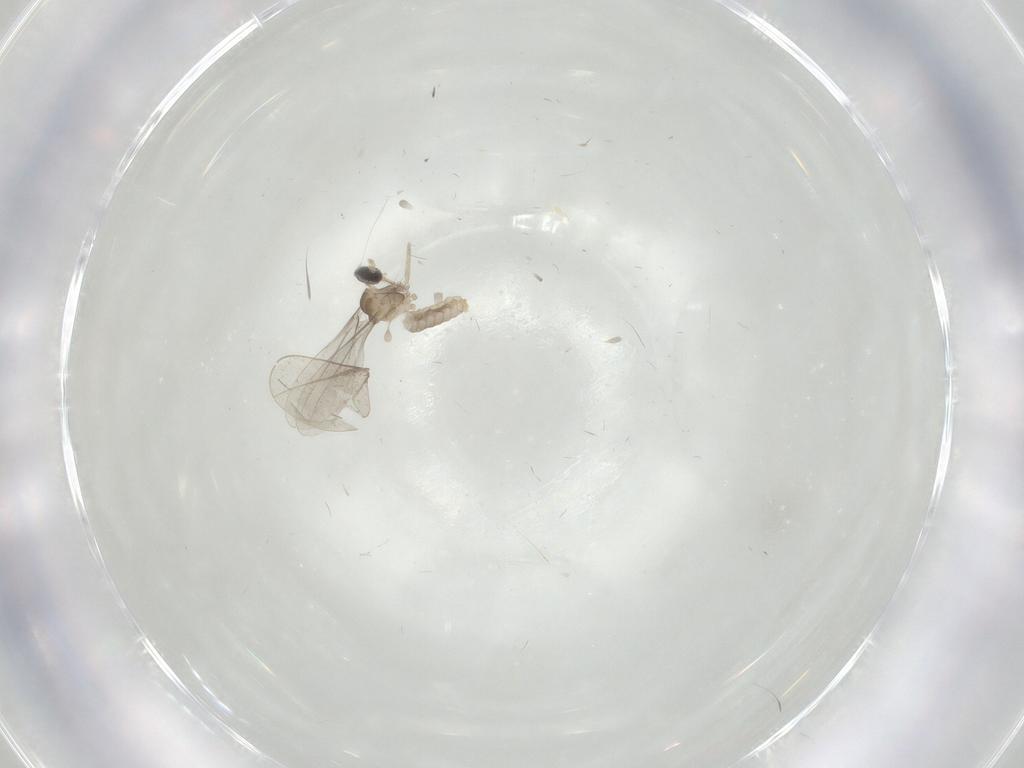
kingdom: Animalia
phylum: Arthropoda
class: Insecta
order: Diptera
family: Cecidomyiidae
